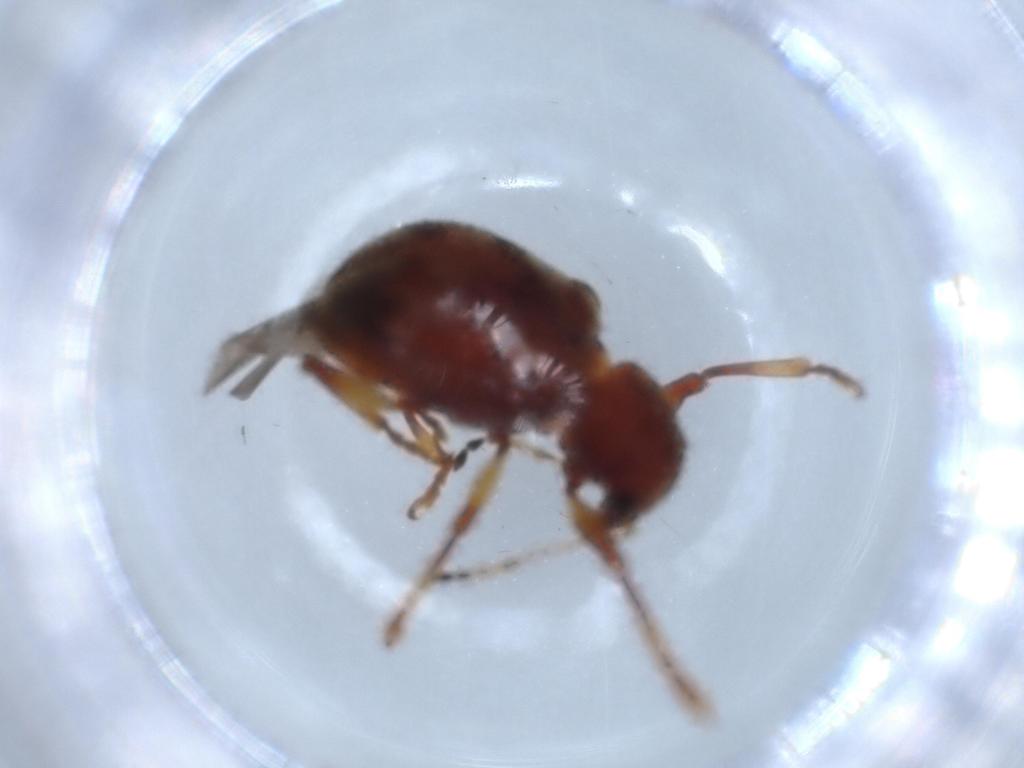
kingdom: Animalia
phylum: Arthropoda
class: Insecta
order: Coleoptera
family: Chrysomelidae
